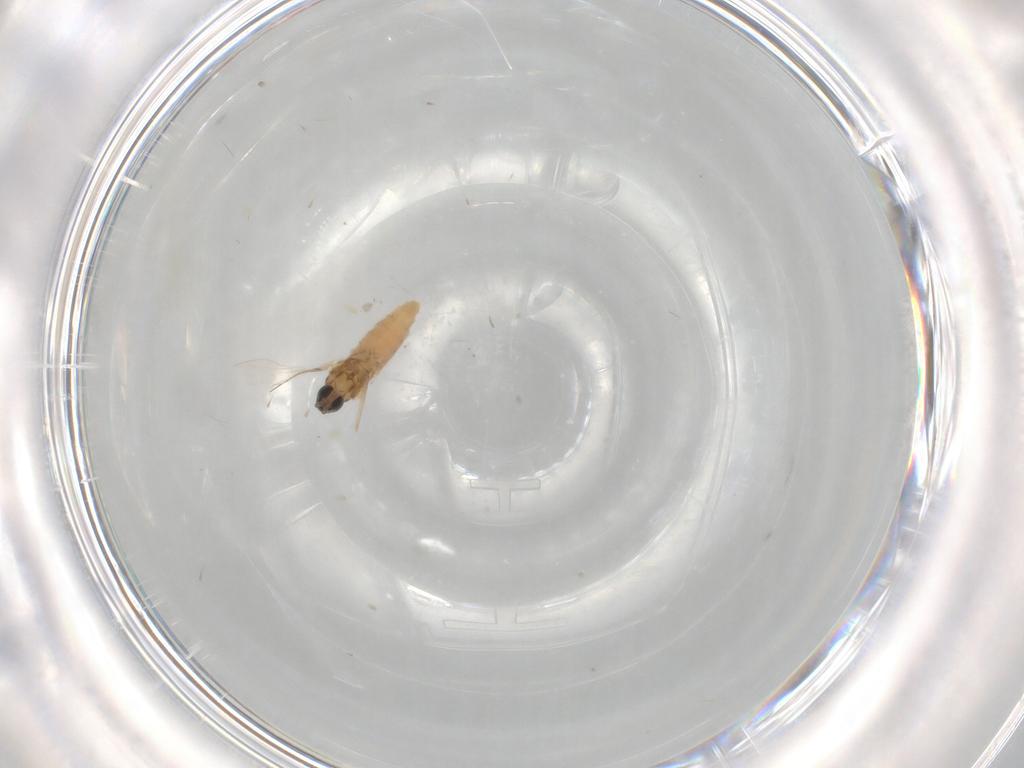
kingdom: Animalia
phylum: Arthropoda
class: Insecta
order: Diptera
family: Cecidomyiidae
